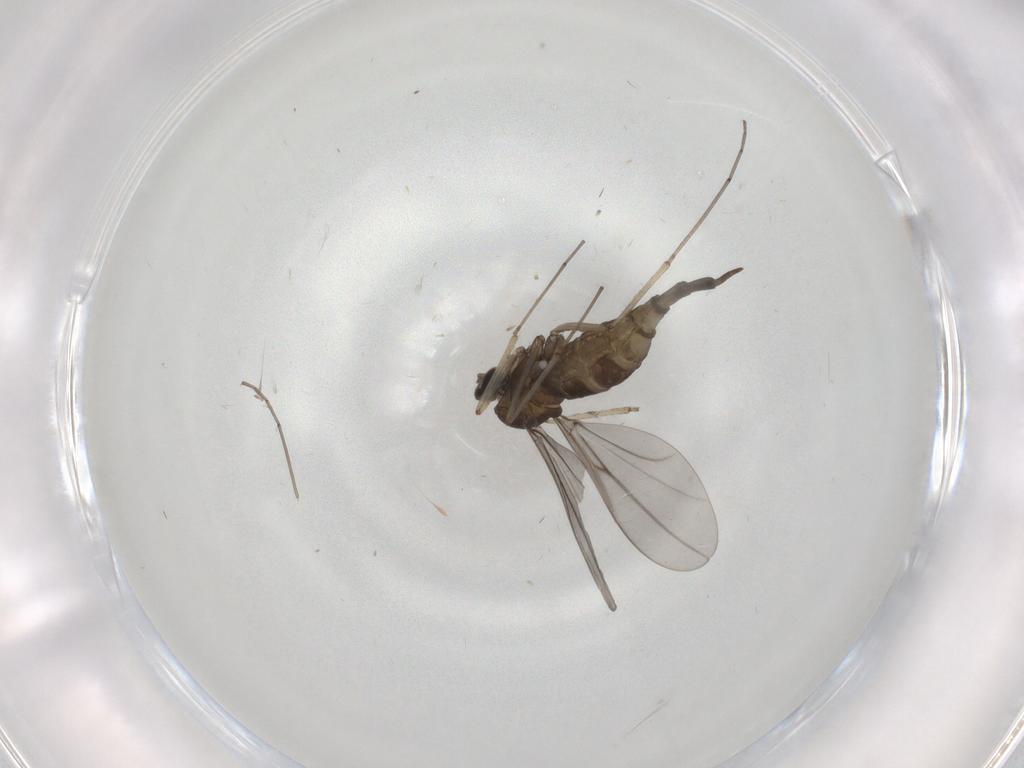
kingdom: Animalia
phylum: Arthropoda
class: Insecta
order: Diptera
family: Cecidomyiidae
